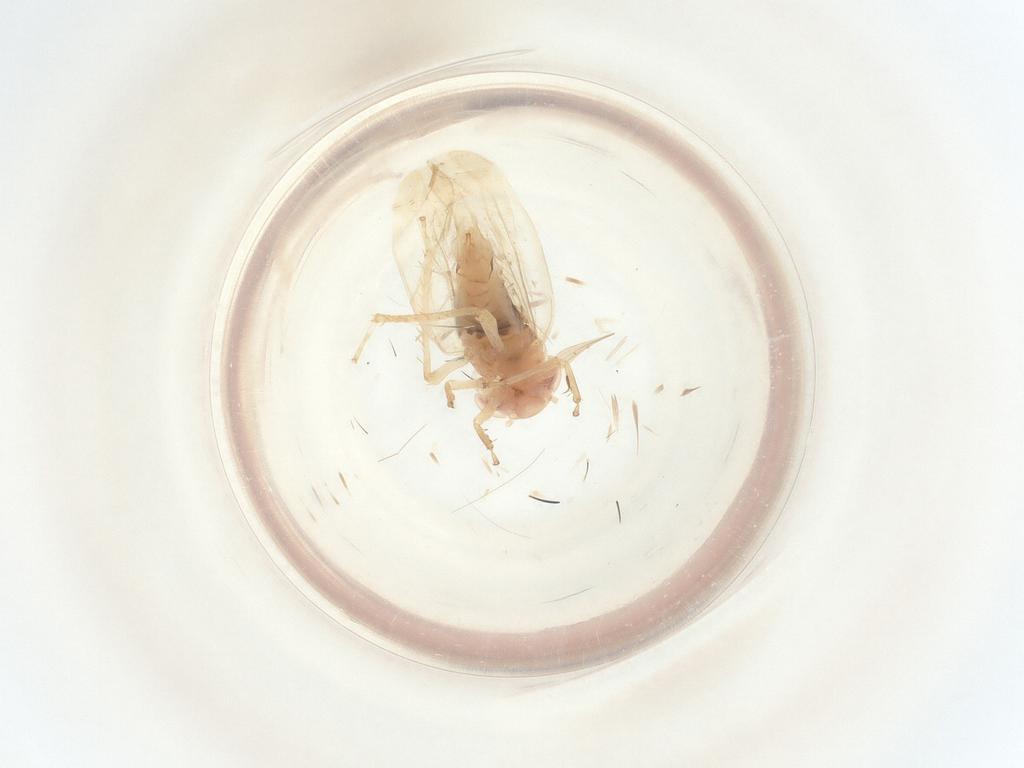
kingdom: Animalia
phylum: Arthropoda
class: Insecta
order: Hemiptera
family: Cicadellidae
